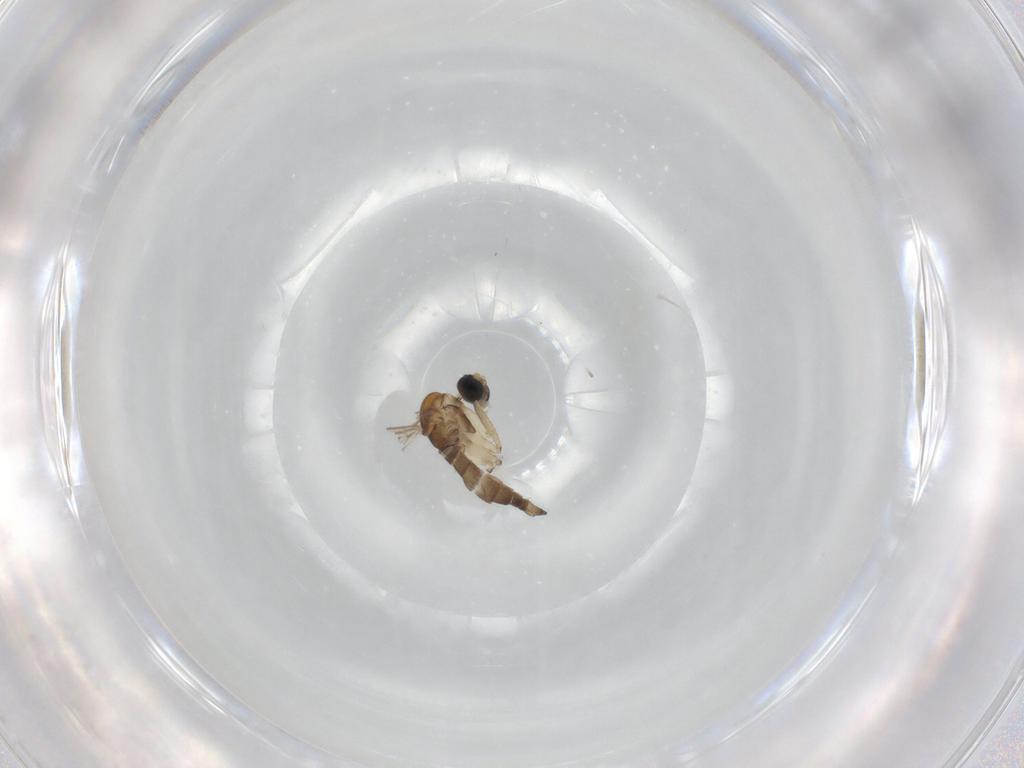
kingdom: Animalia
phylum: Arthropoda
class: Insecta
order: Diptera
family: Sciaridae
